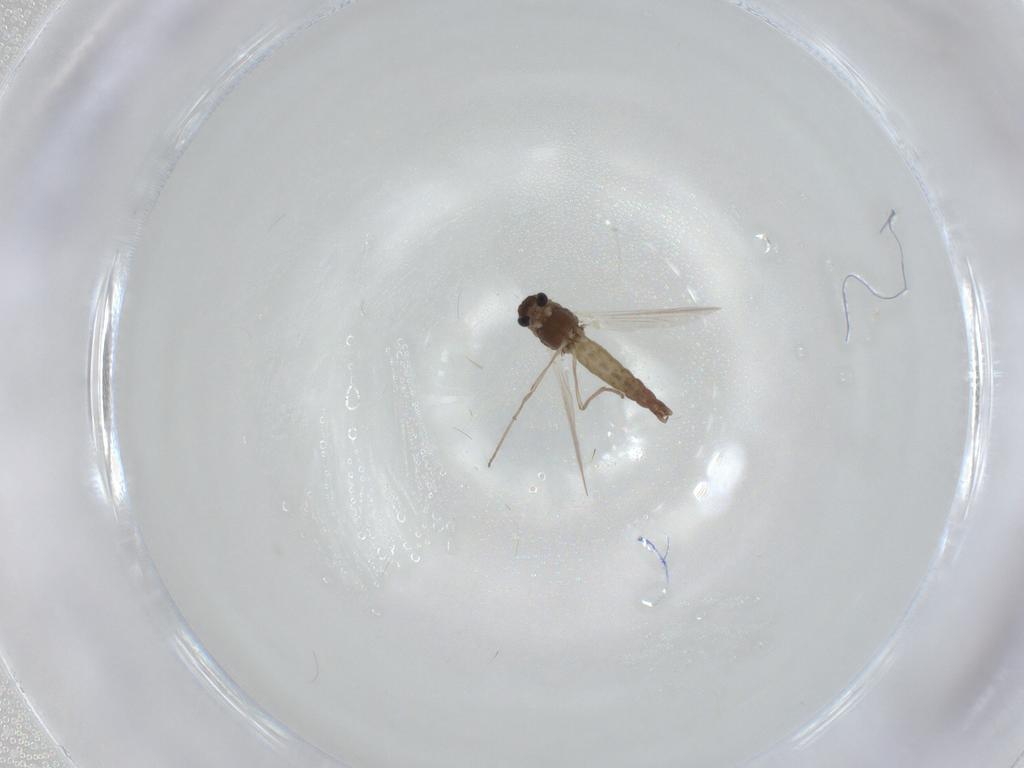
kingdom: Animalia
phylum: Arthropoda
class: Insecta
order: Diptera
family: Chironomidae
